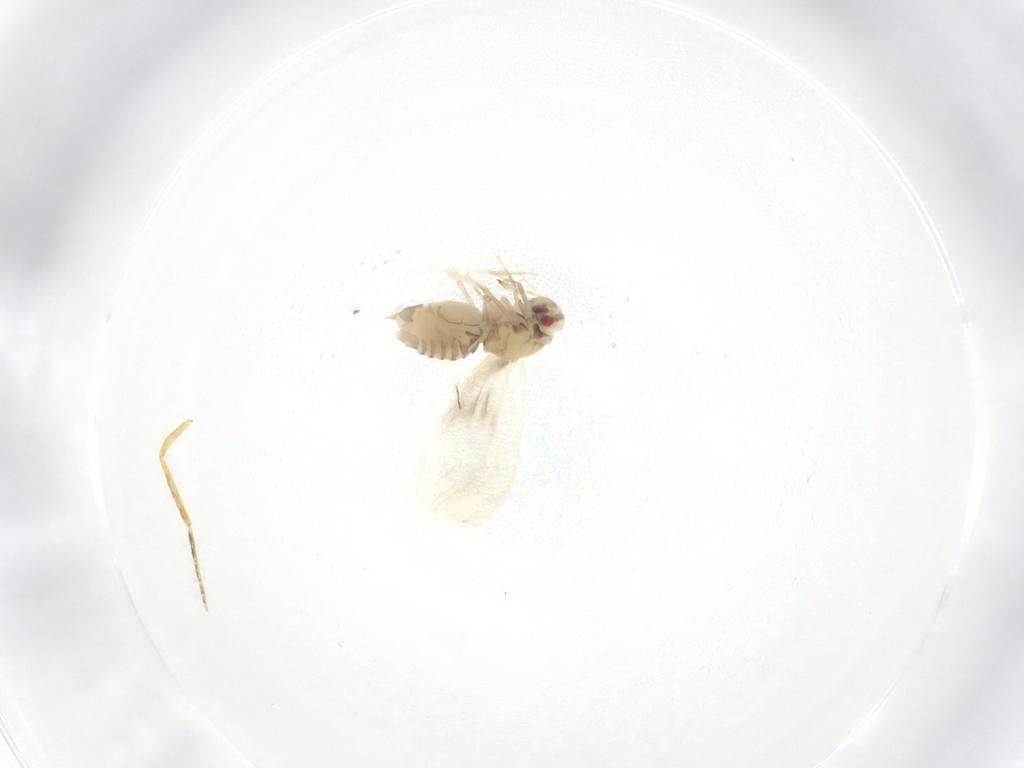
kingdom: Animalia
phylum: Arthropoda
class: Insecta
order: Diptera
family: Ceratopogonidae
